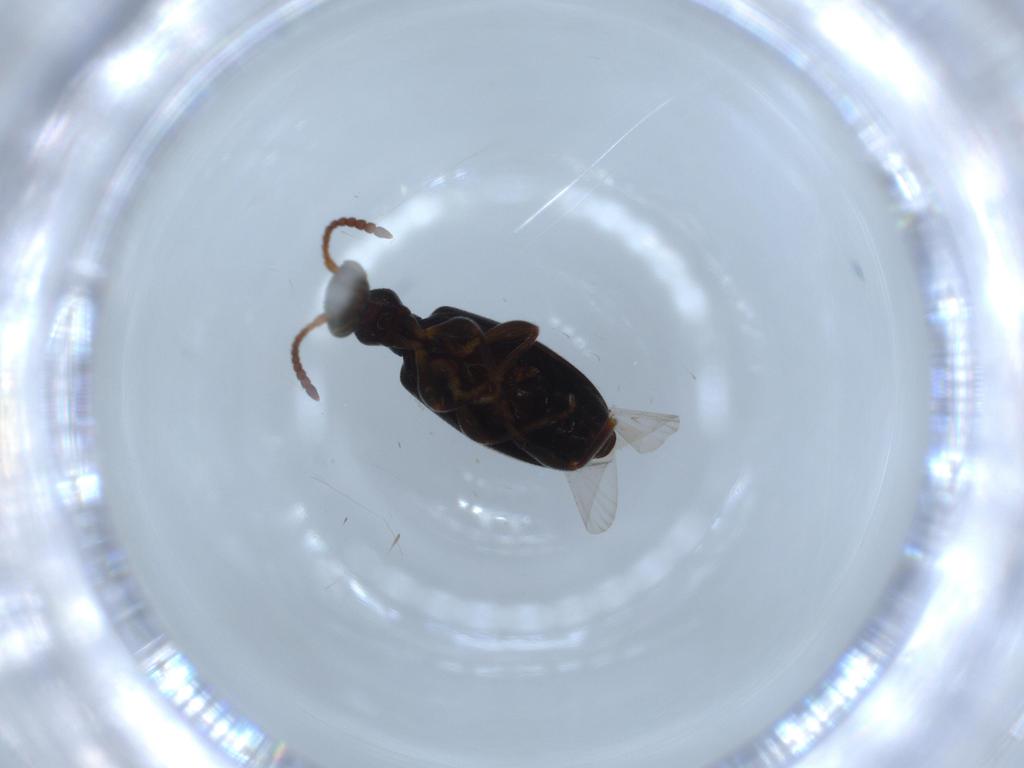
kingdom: Animalia
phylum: Arthropoda
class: Insecta
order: Coleoptera
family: Anthicidae
